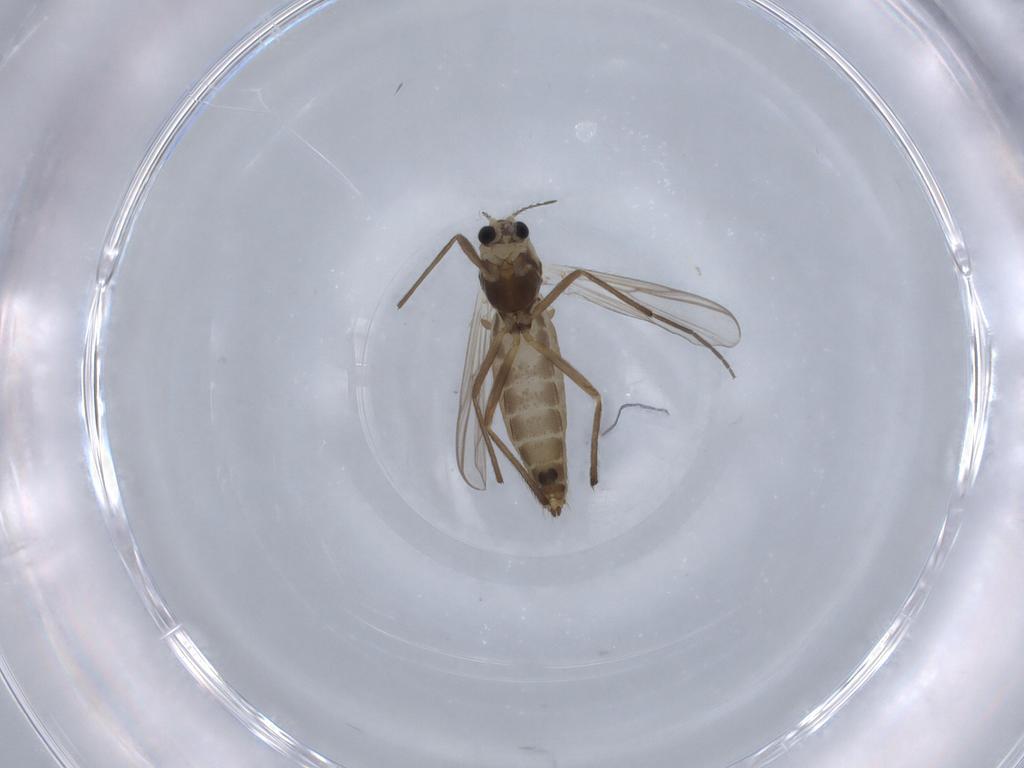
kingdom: Animalia
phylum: Arthropoda
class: Insecta
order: Diptera
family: Chironomidae
